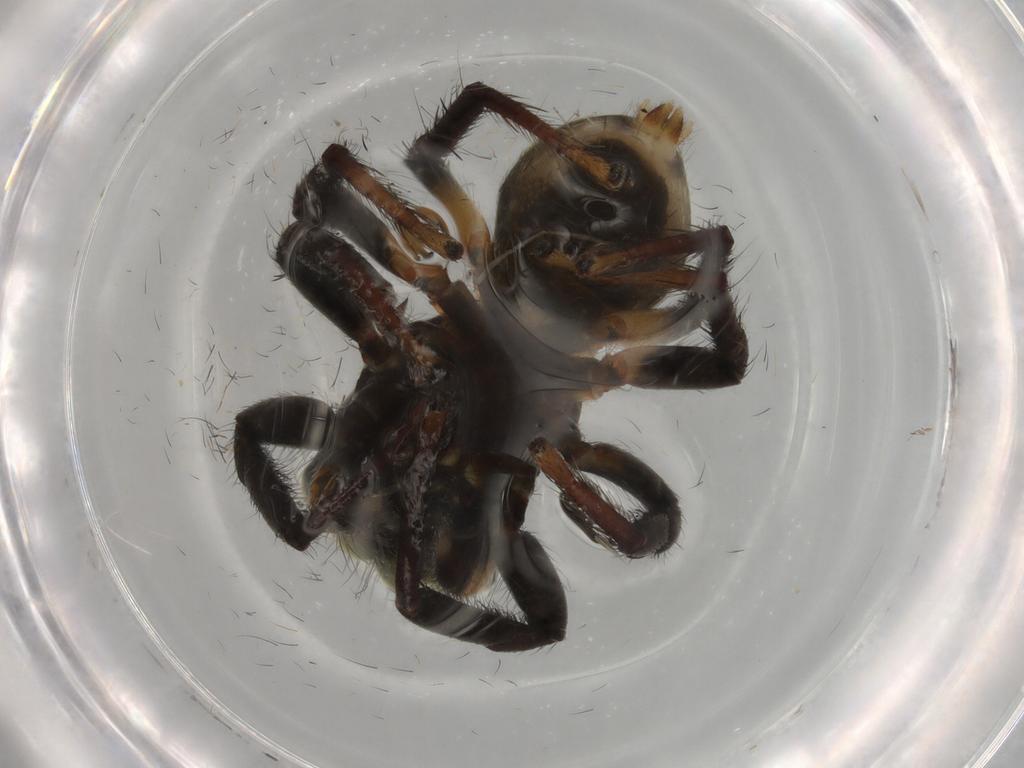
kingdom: Animalia
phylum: Arthropoda
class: Arachnida
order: Araneae
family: Salticidae
